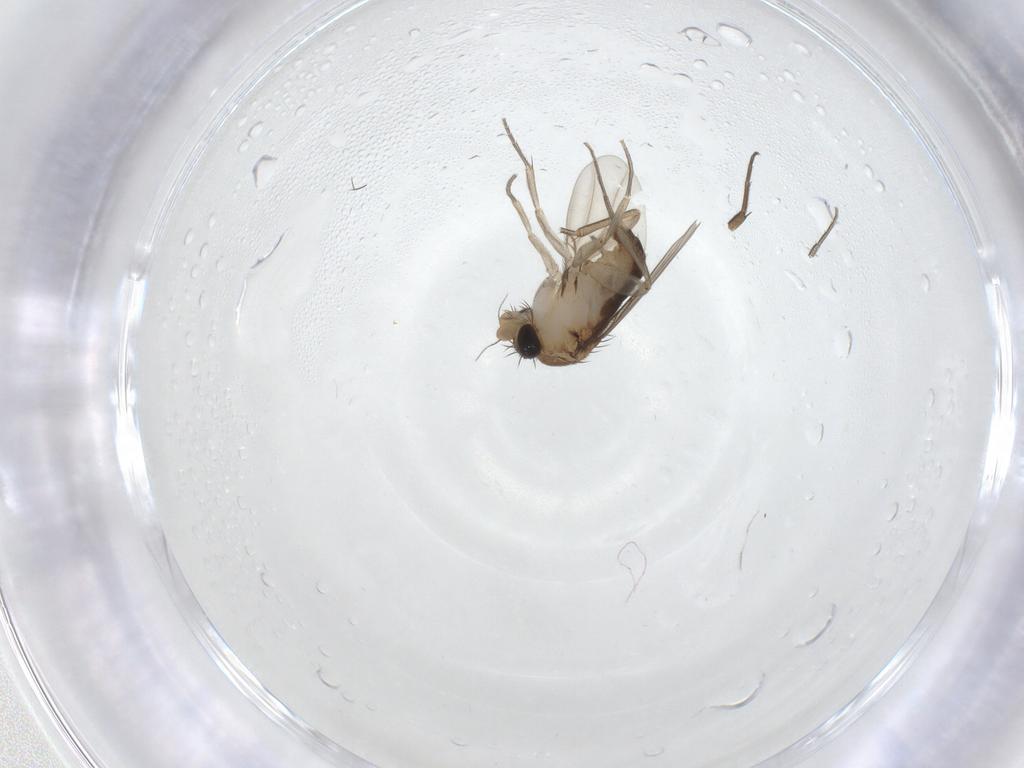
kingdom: Animalia
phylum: Arthropoda
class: Insecta
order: Diptera
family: Phoridae
